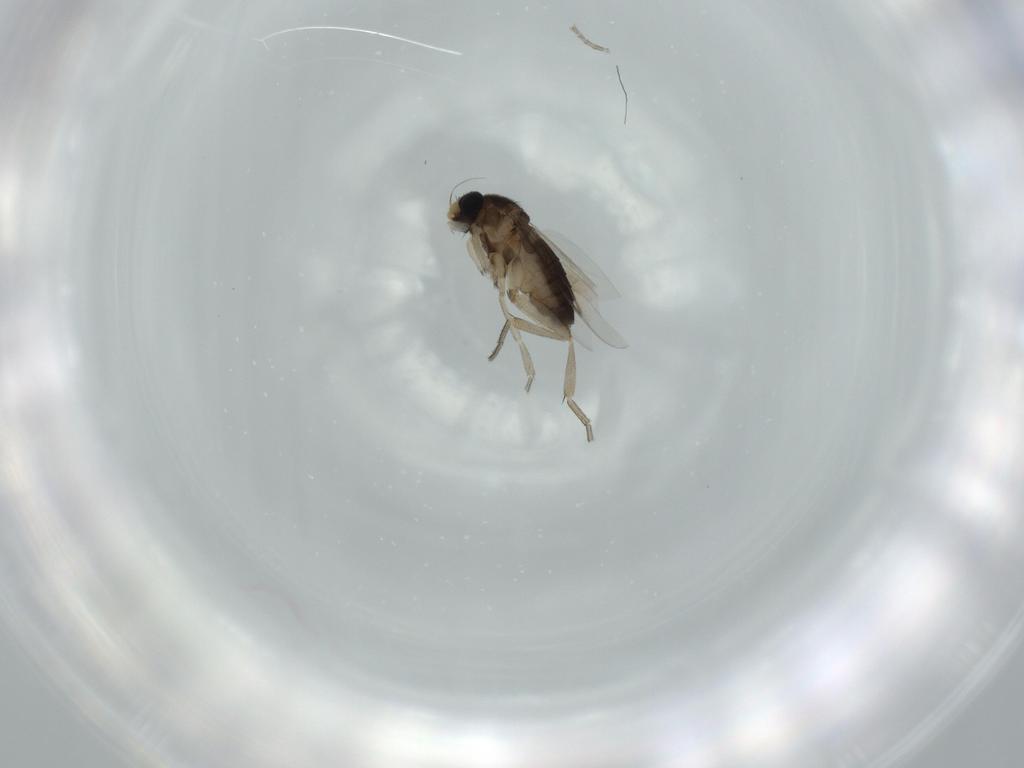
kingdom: Animalia
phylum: Arthropoda
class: Insecta
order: Diptera
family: Phoridae
